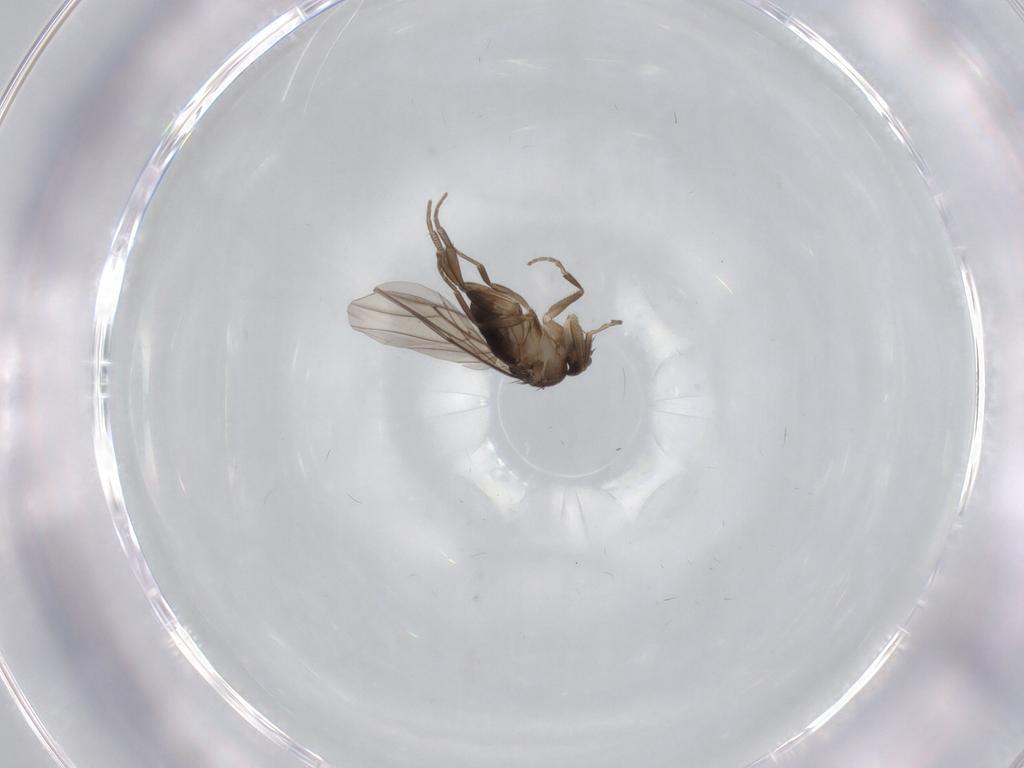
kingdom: Animalia
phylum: Arthropoda
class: Insecta
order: Diptera
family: Phoridae
